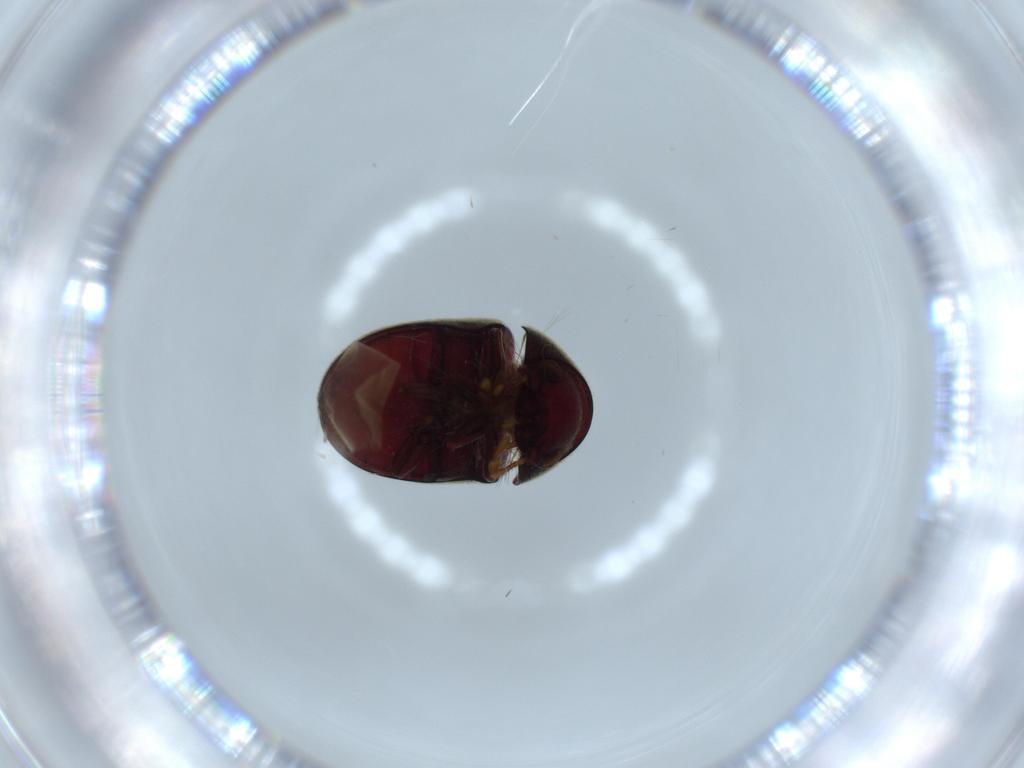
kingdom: Animalia
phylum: Arthropoda
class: Insecta
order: Coleoptera
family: Ptinidae
